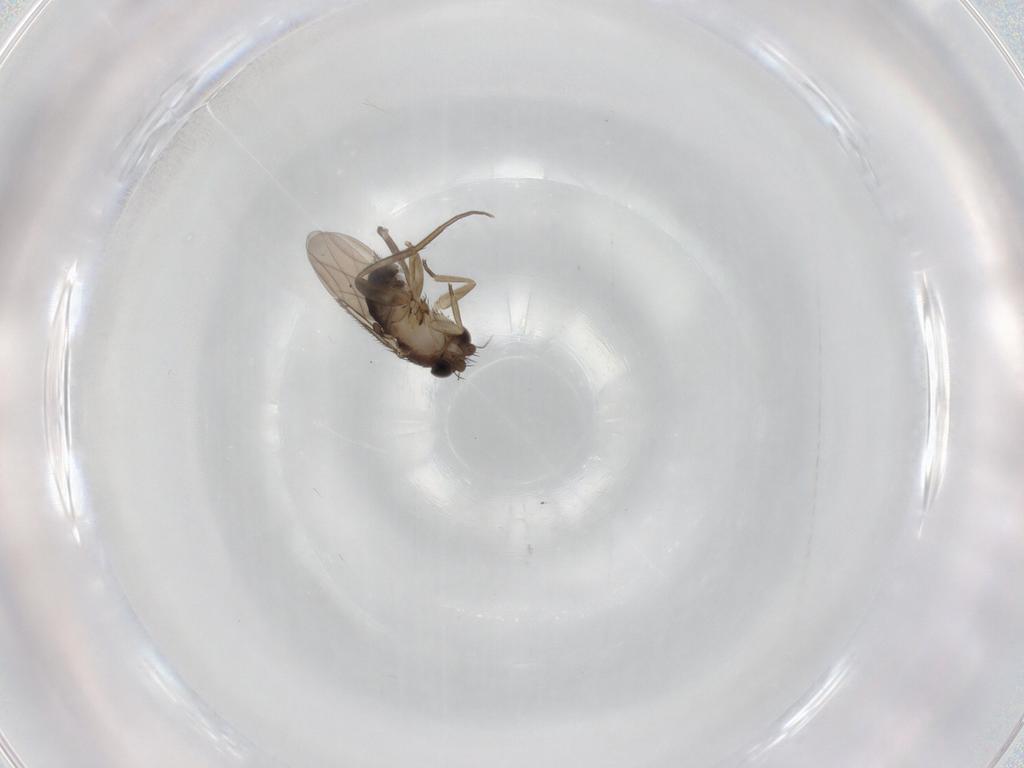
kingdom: Animalia
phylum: Arthropoda
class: Insecta
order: Diptera
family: Phoridae
